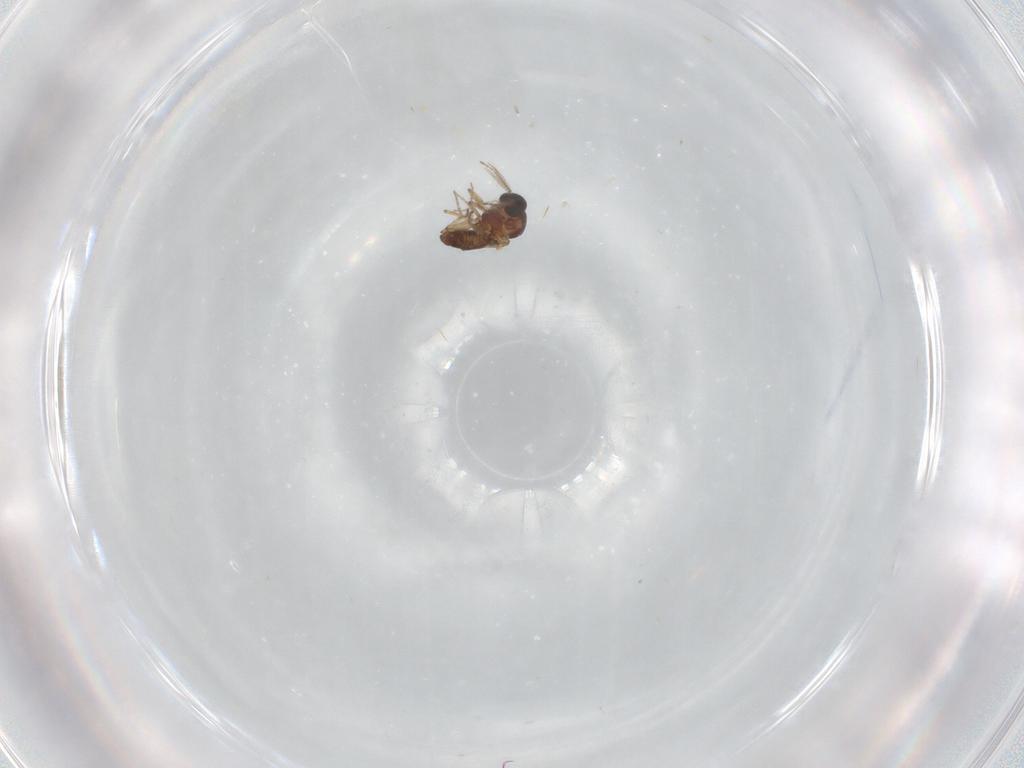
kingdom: Animalia
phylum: Arthropoda
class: Insecta
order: Diptera
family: Ceratopogonidae
